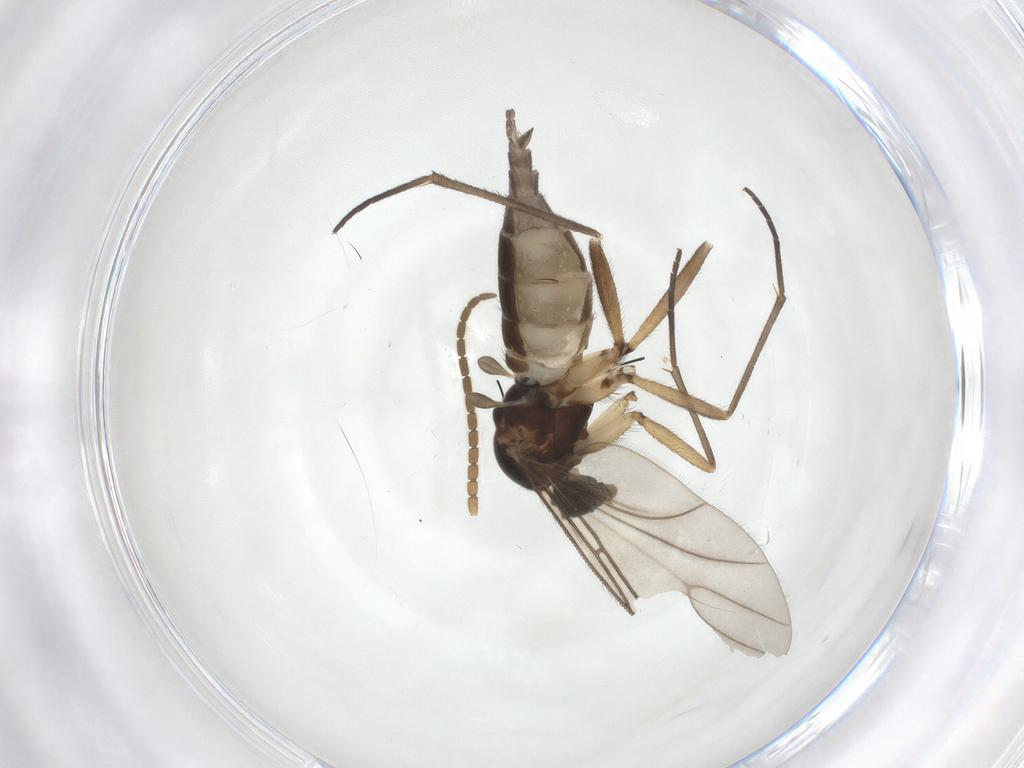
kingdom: Animalia
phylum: Arthropoda
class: Insecta
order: Diptera
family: Sciaridae
